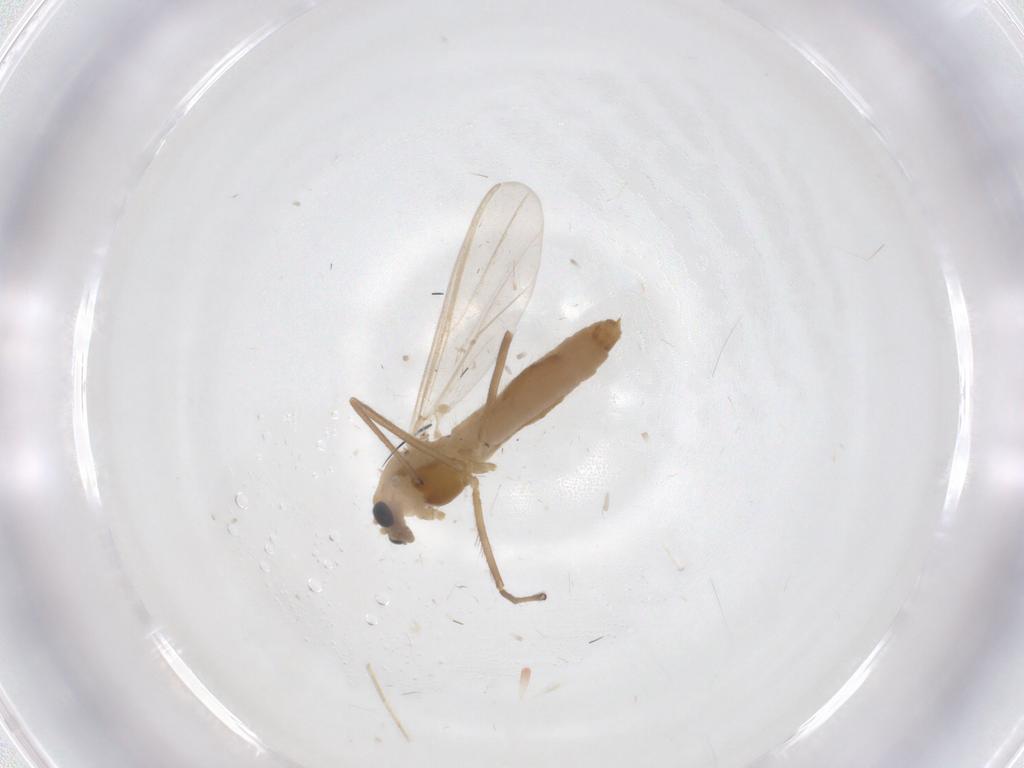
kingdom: Animalia
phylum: Arthropoda
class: Insecta
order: Diptera
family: Chironomidae
